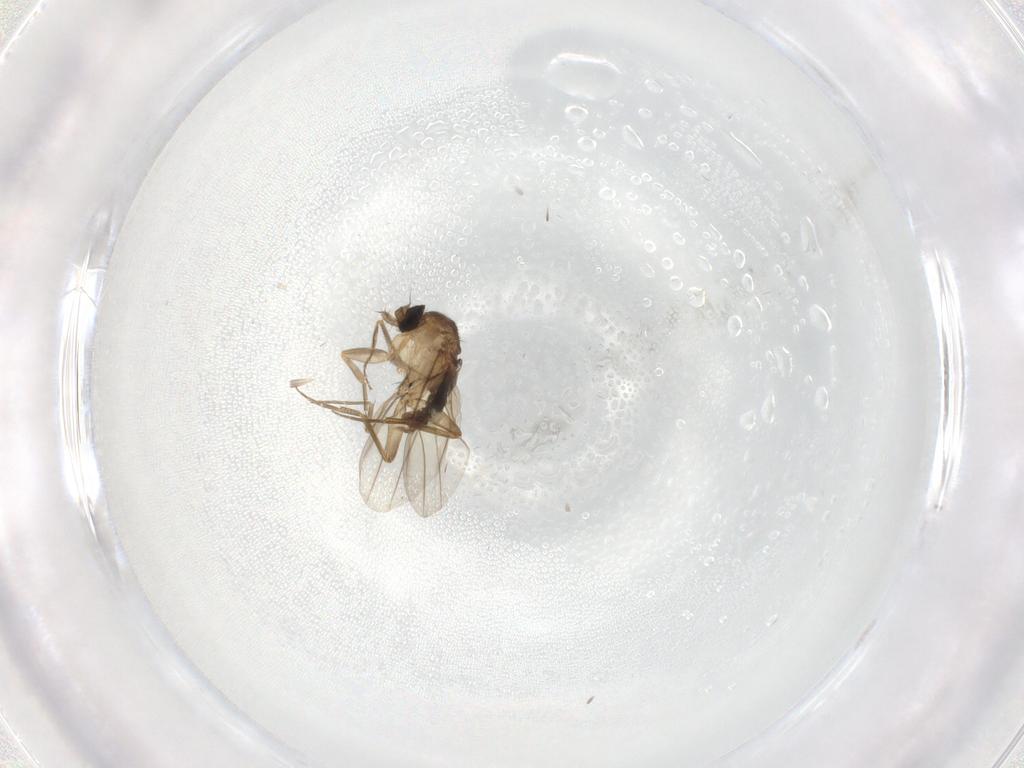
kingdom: Animalia
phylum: Arthropoda
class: Insecta
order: Diptera
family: Phoridae
